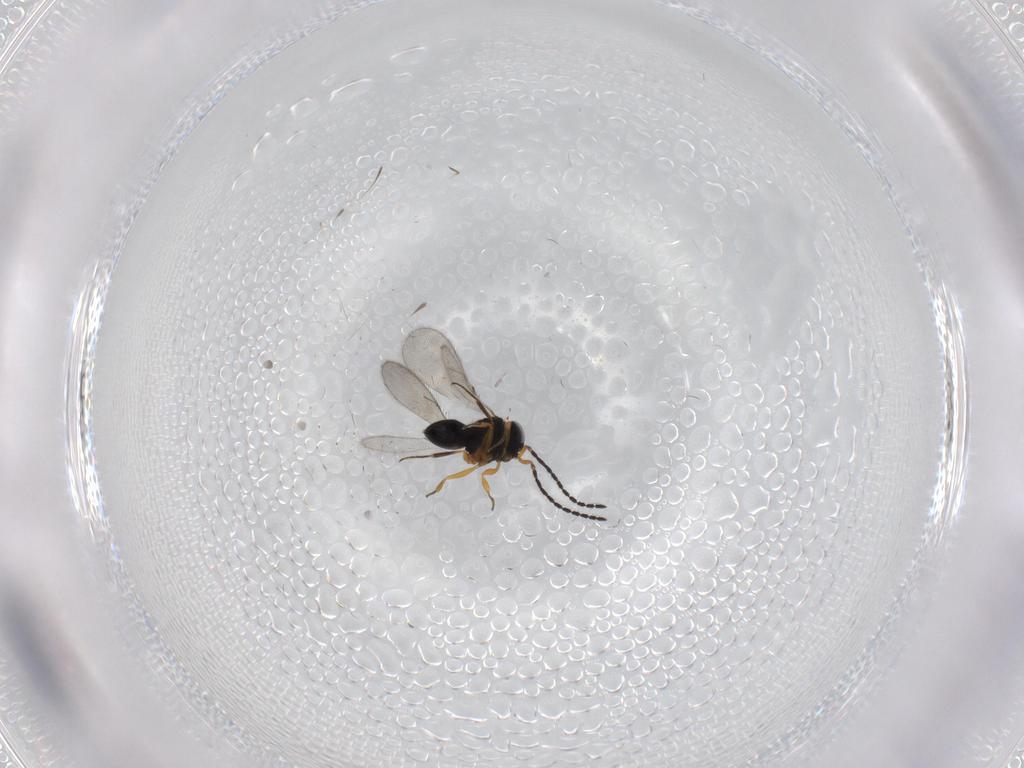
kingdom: Animalia
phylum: Arthropoda
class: Insecta
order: Hymenoptera
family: Scelionidae
